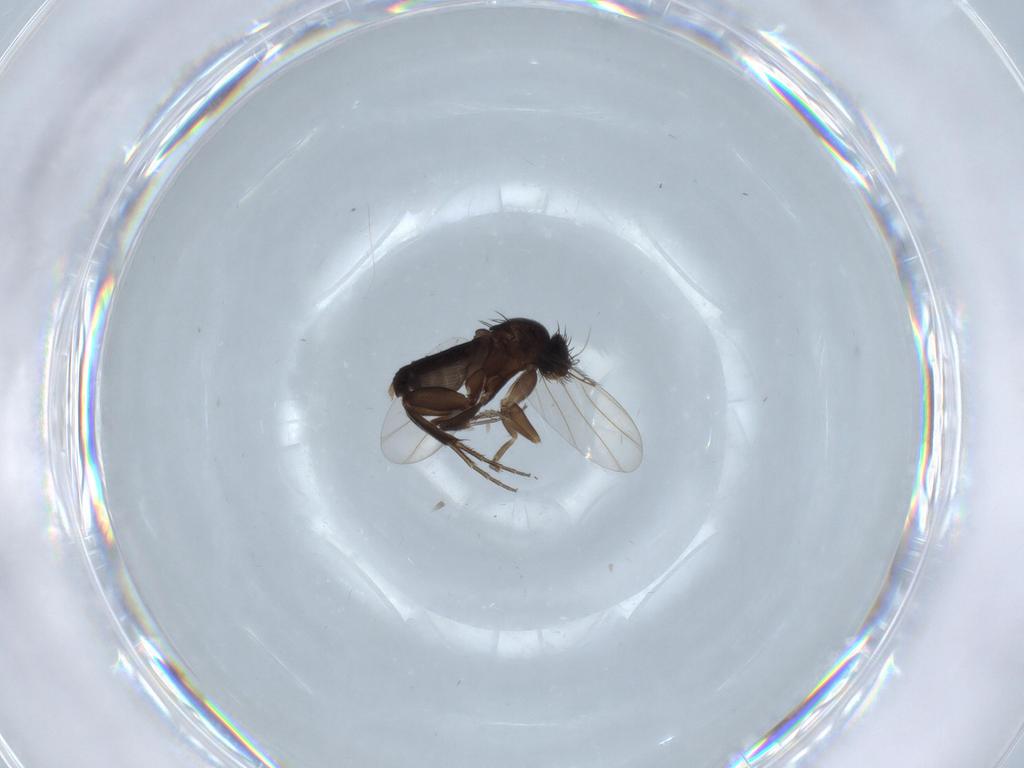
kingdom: Animalia
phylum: Arthropoda
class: Insecta
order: Diptera
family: Phoridae
